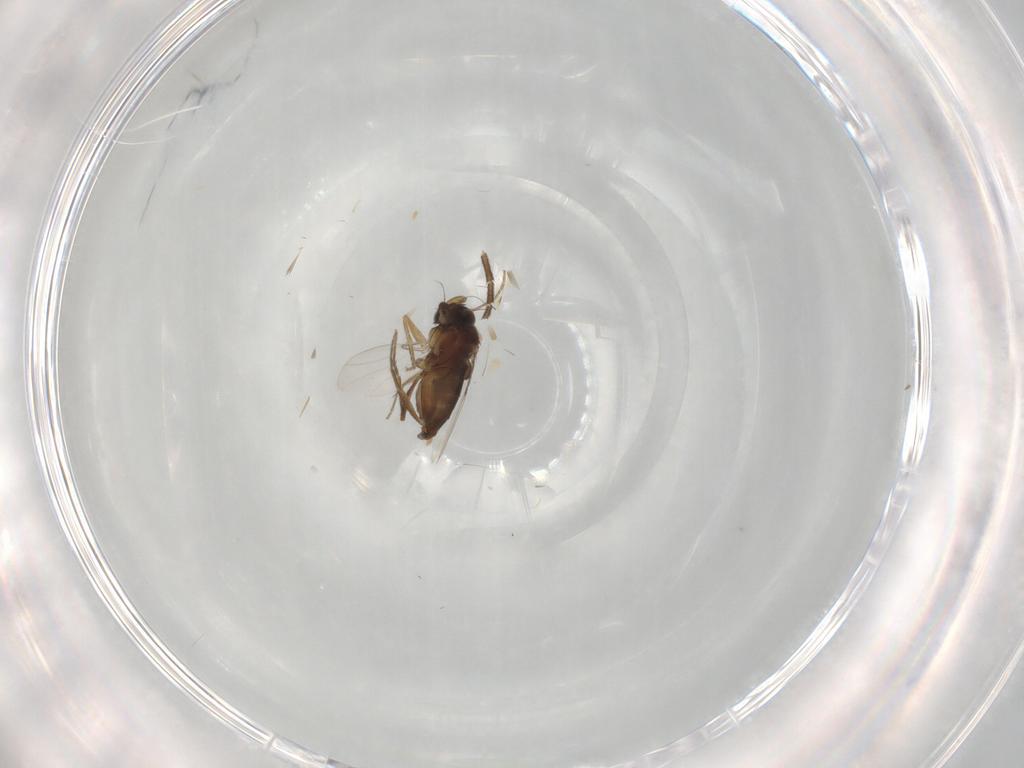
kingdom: Animalia
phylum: Arthropoda
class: Insecta
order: Diptera
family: Phoridae
